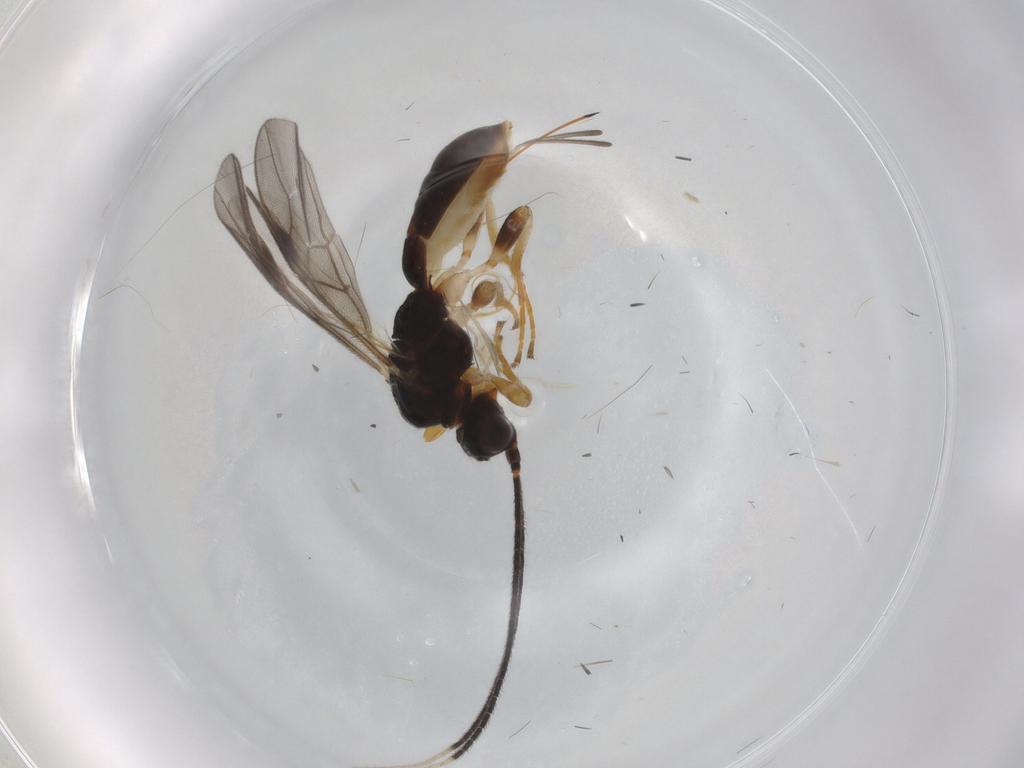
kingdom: Animalia
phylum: Arthropoda
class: Insecta
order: Hymenoptera
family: Braconidae
